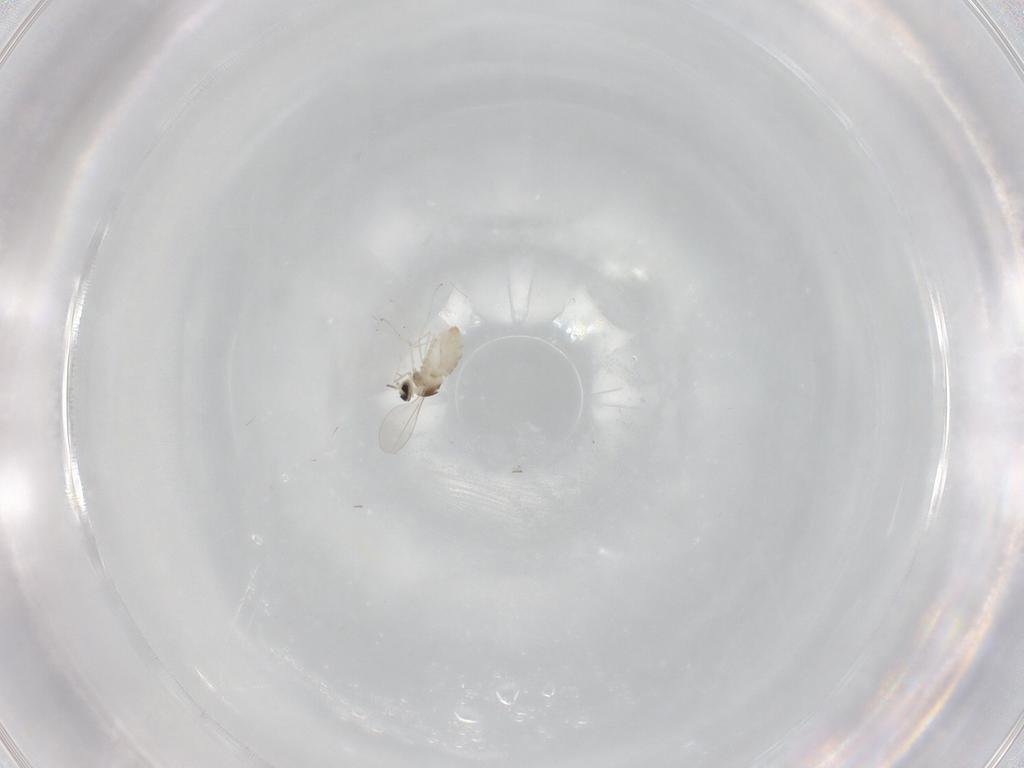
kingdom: Animalia
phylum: Arthropoda
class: Insecta
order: Diptera
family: Cecidomyiidae
